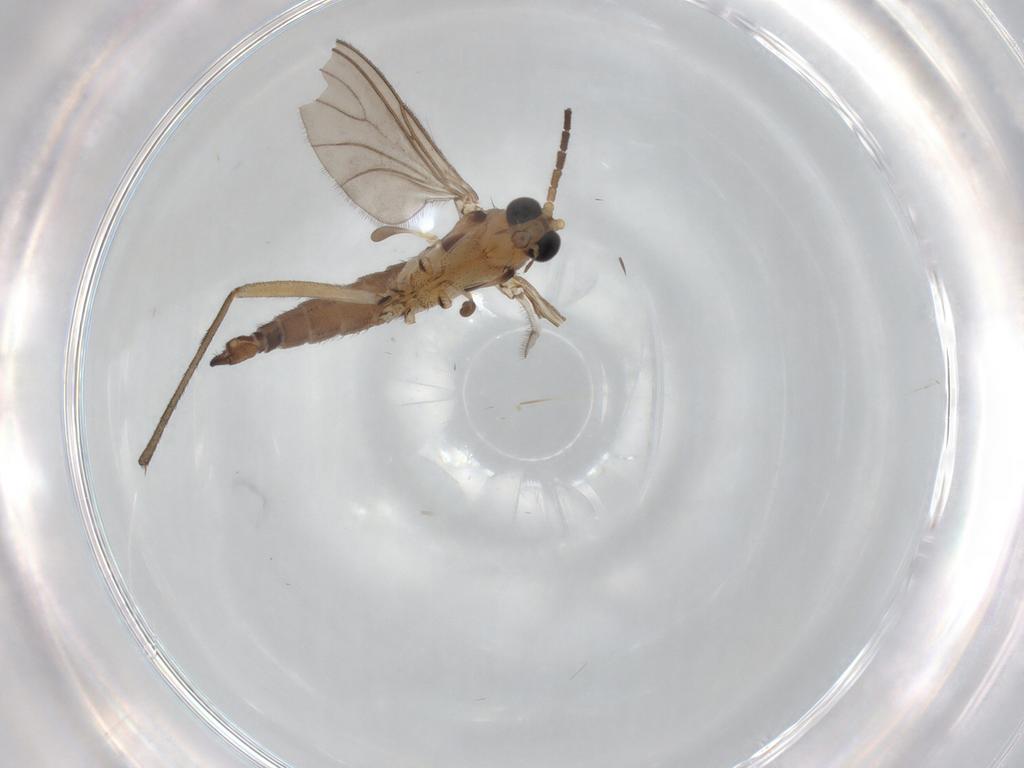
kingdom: Animalia
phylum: Arthropoda
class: Insecta
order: Diptera
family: Sciaridae
